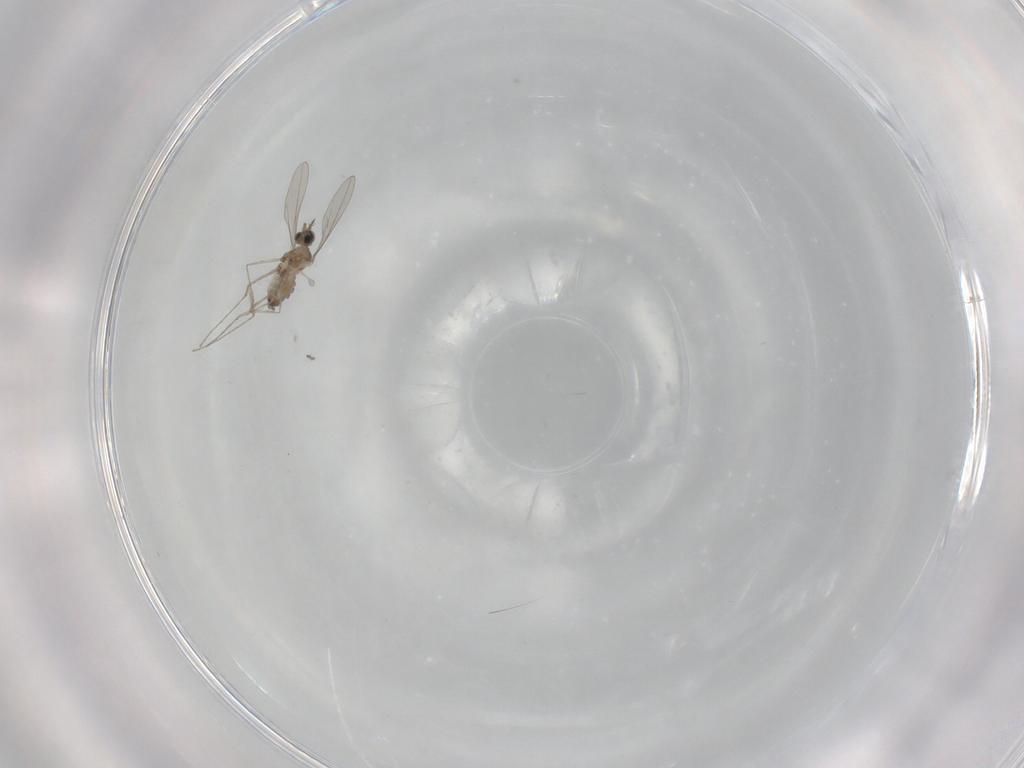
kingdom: Animalia
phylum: Arthropoda
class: Insecta
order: Diptera
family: Cecidomyiidae
